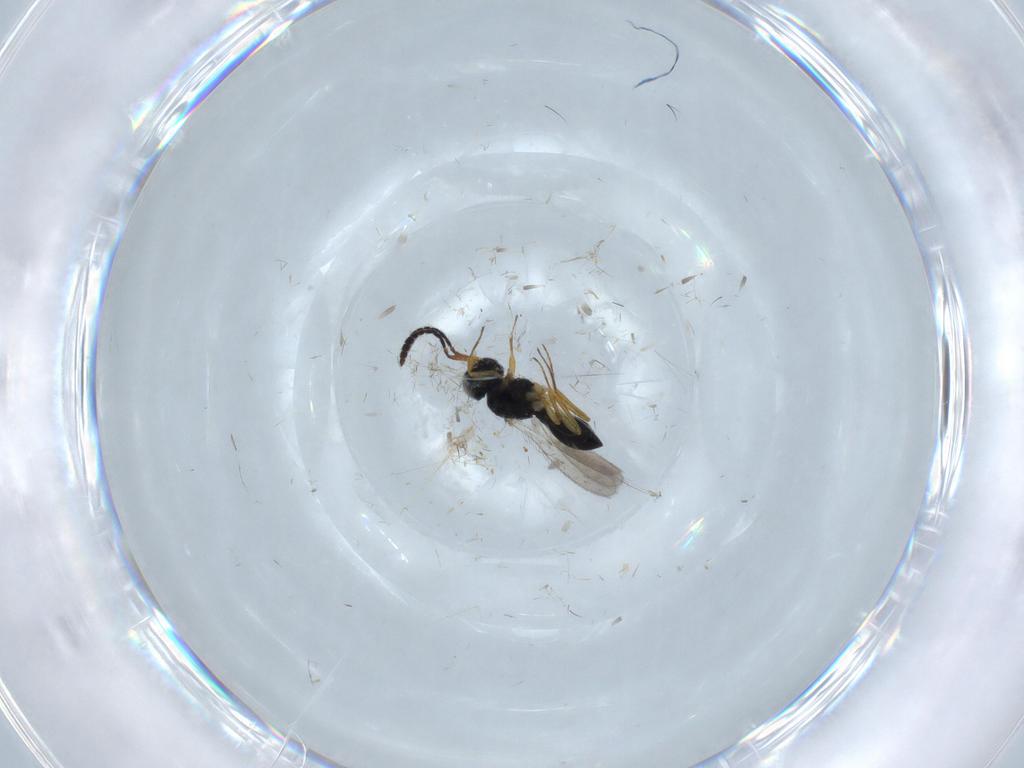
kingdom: Animalia
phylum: Arthropoda
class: Insecta
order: Hymenoptera
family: Scelionidae
